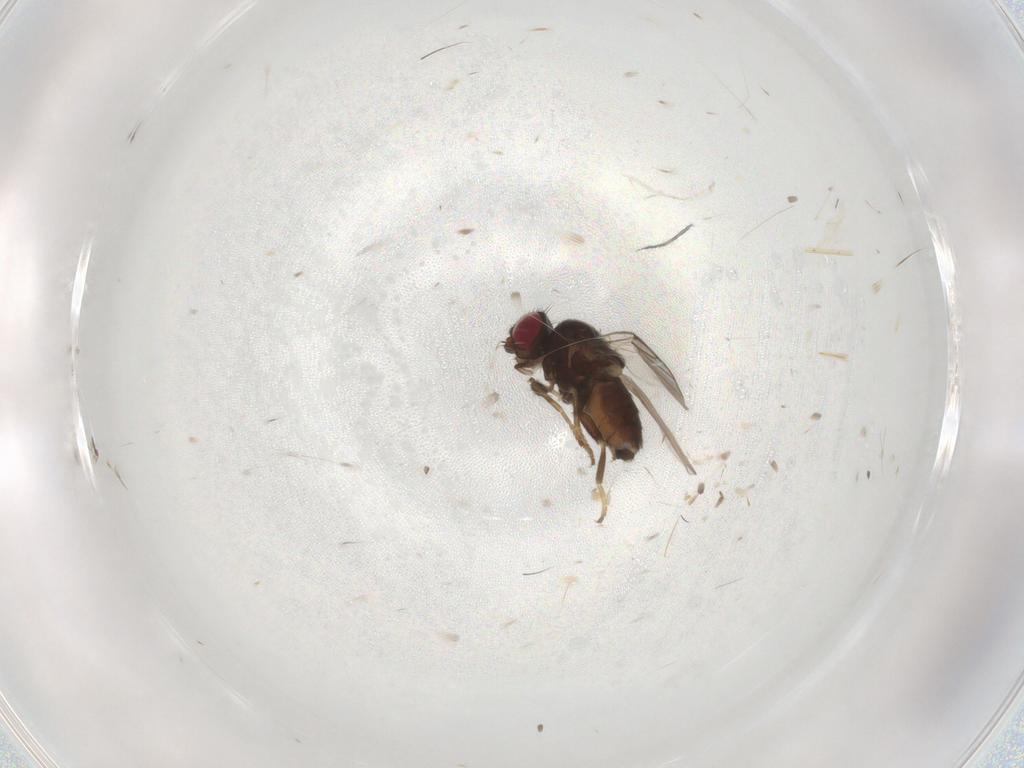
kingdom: Animalia
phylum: Arthropoda
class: Insecta
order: Diptera
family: Chloropidae
